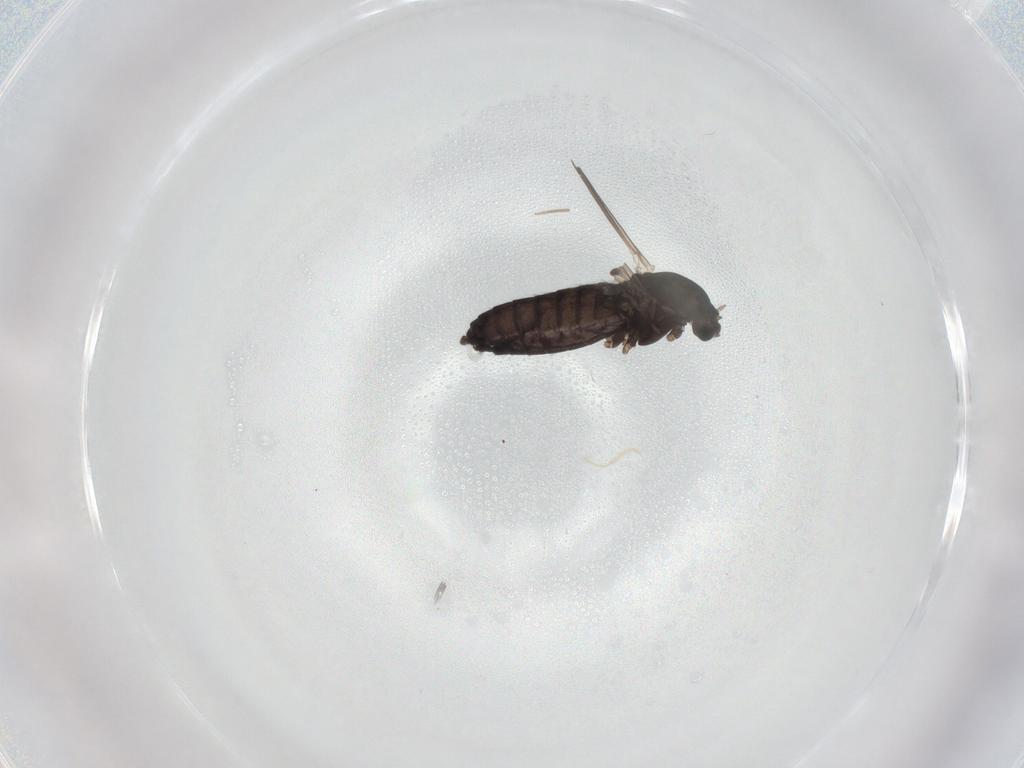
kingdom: Animalia
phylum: Arthropoda
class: Insecta
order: Diptera
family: Chironomidae
